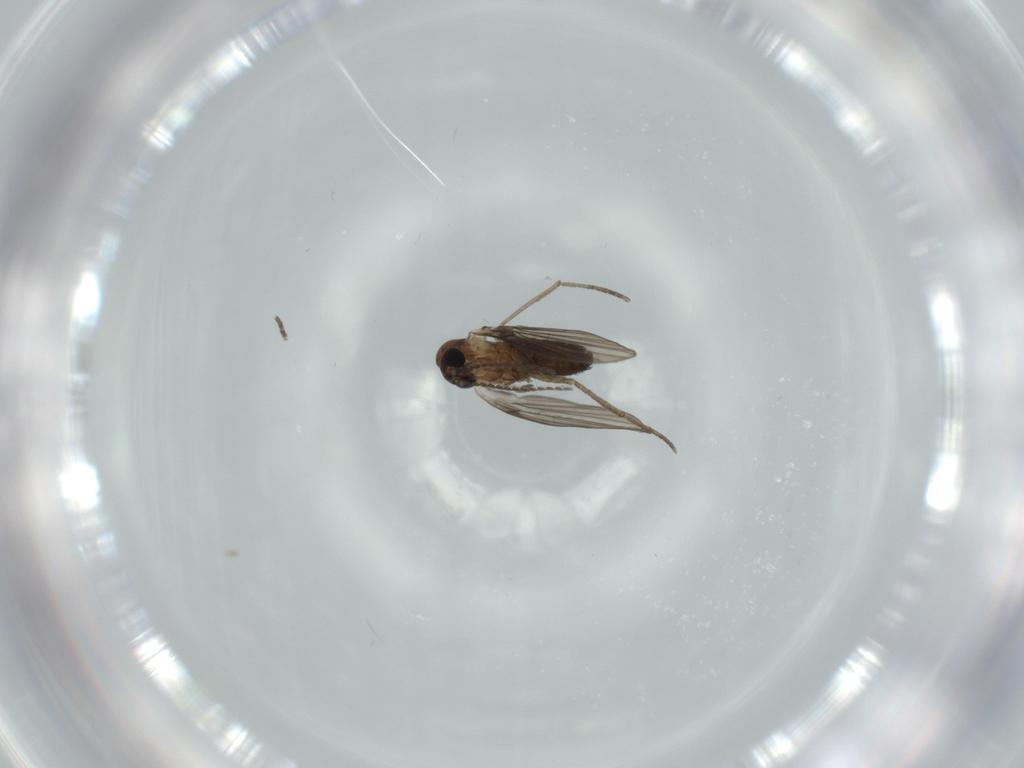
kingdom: Animalia
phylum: Arthropoda
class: Insecta
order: Diptera
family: Psychodidae
